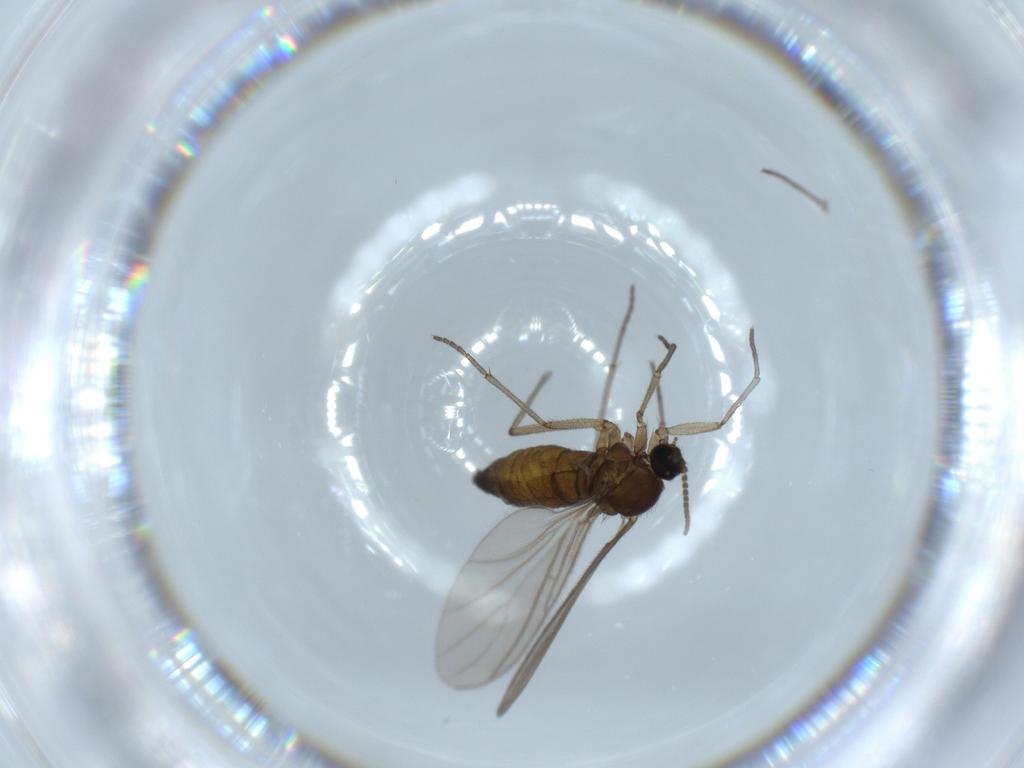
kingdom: Animalia
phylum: Arthropoda
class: Insecta
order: Diptera
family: Sciaridae
